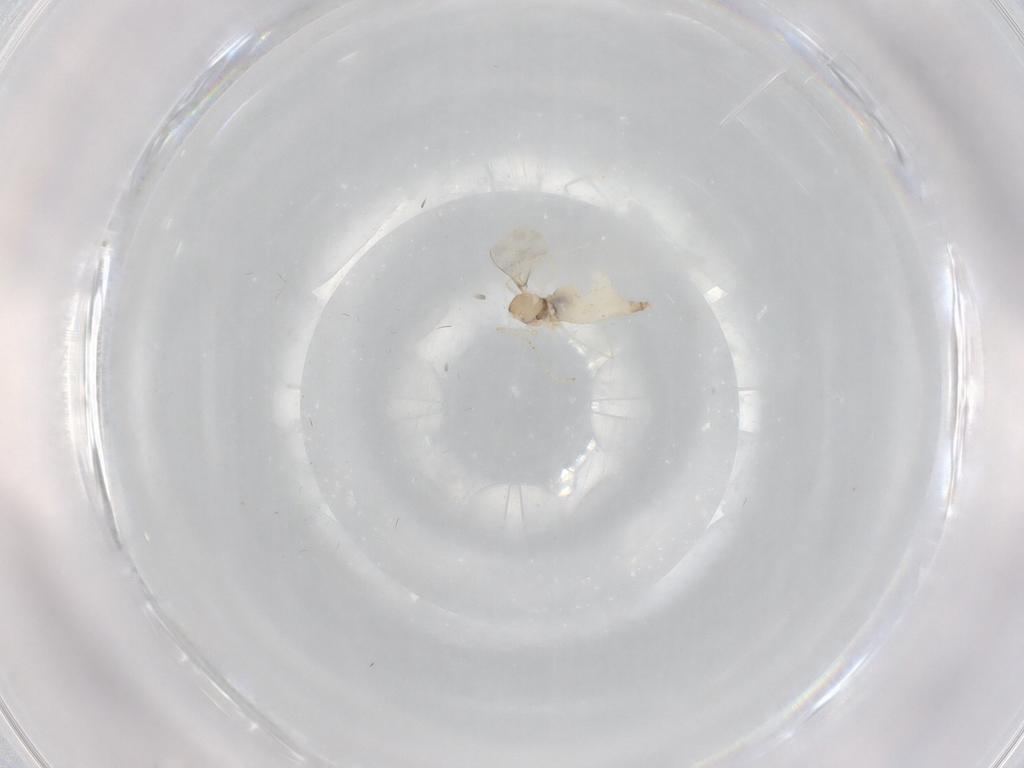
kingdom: Animalia
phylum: Arthropoda
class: Insecta
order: Diptera
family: Cecidomyiidae
